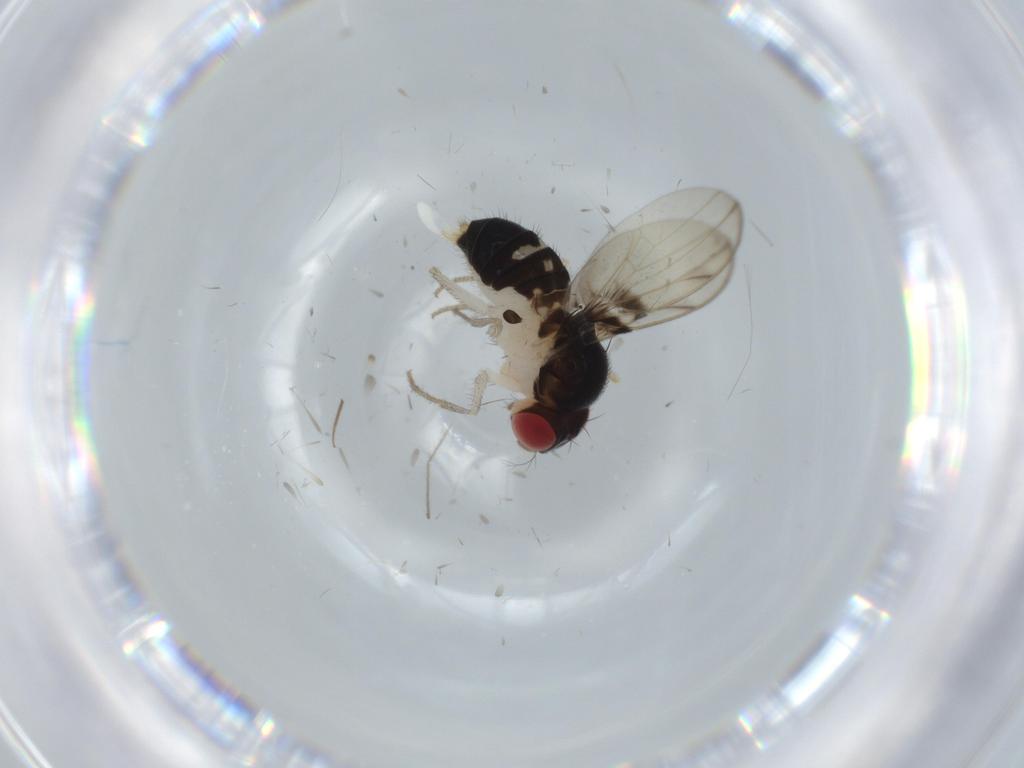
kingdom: Animalia
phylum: Arthropoda
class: Insecta
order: Diptera
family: Drosophilidae
